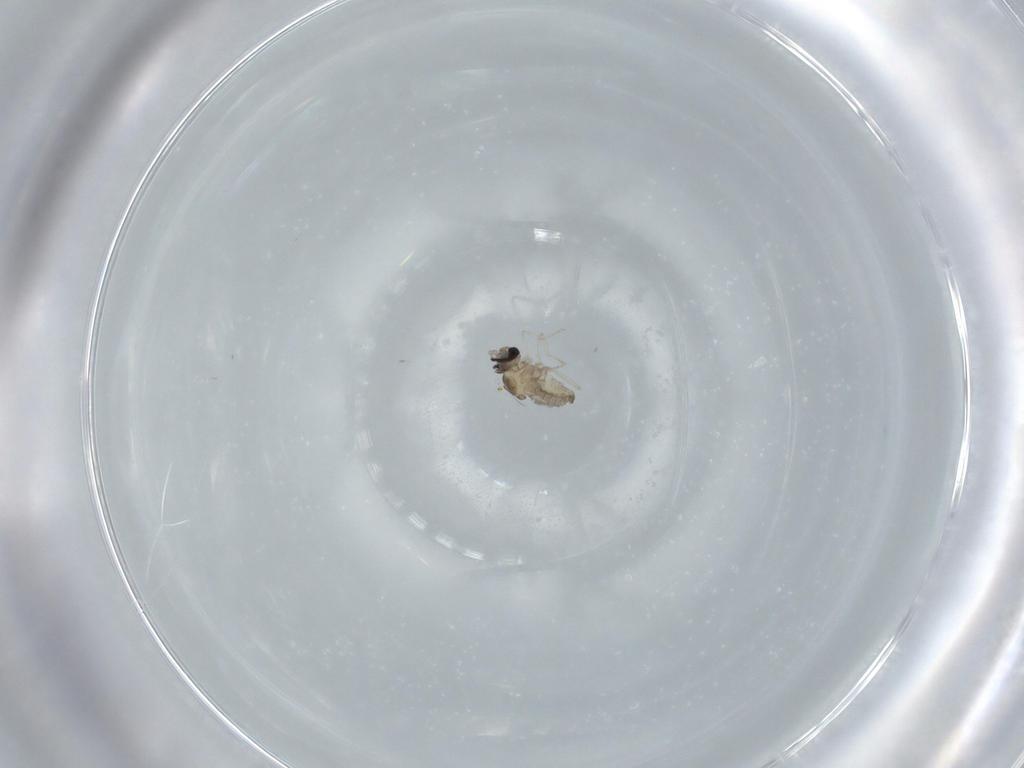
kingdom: Animalia
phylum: Arthropoda
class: Insecta
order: Diptera
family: Cecidomyiidae
